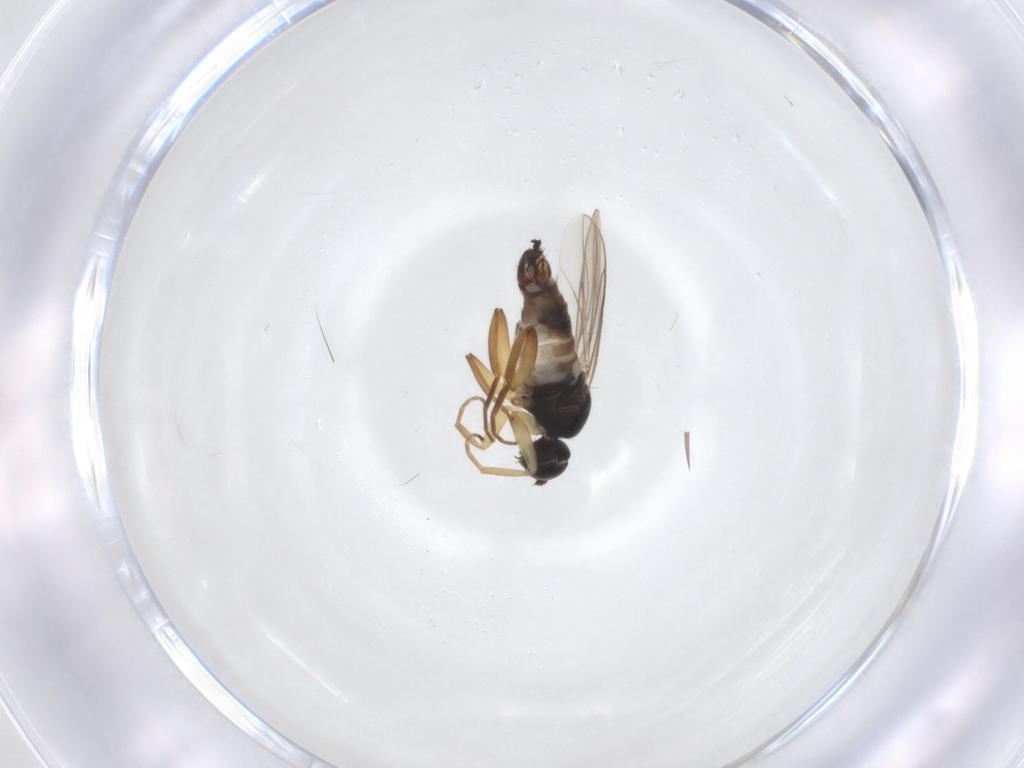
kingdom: Animalia
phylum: Arthropoda
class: Insecta
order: Diptera
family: Hybotidae
